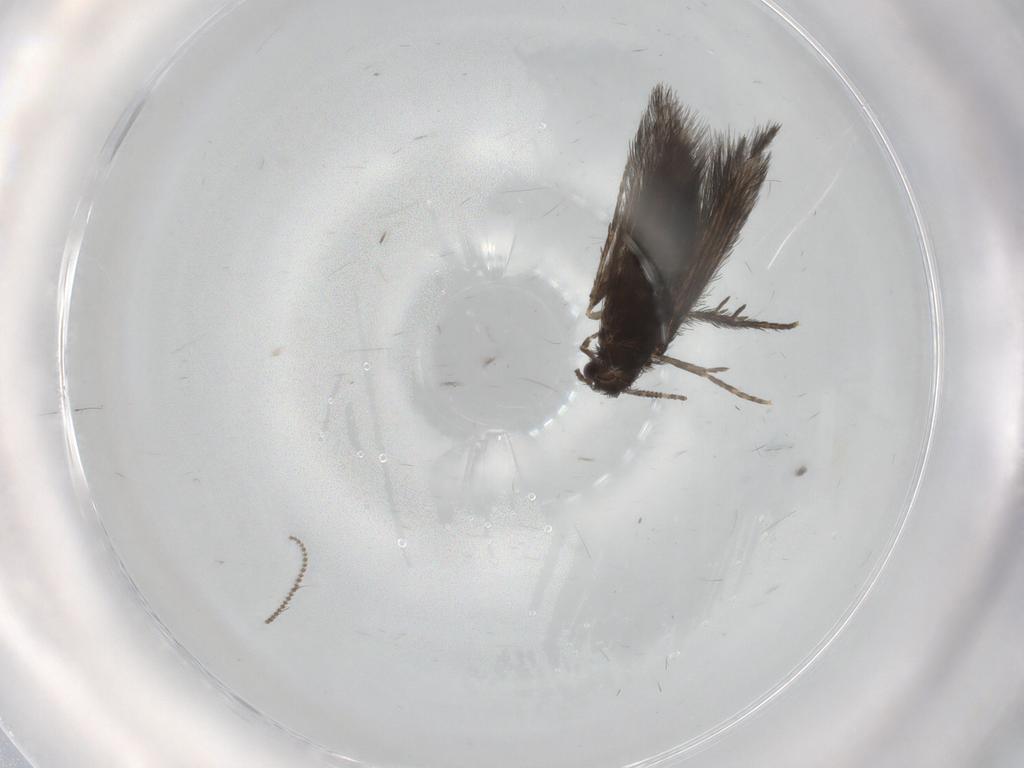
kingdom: Animalia
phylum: Arthropoda
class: Insecta
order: Trichoptera
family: Hydroptilidae
